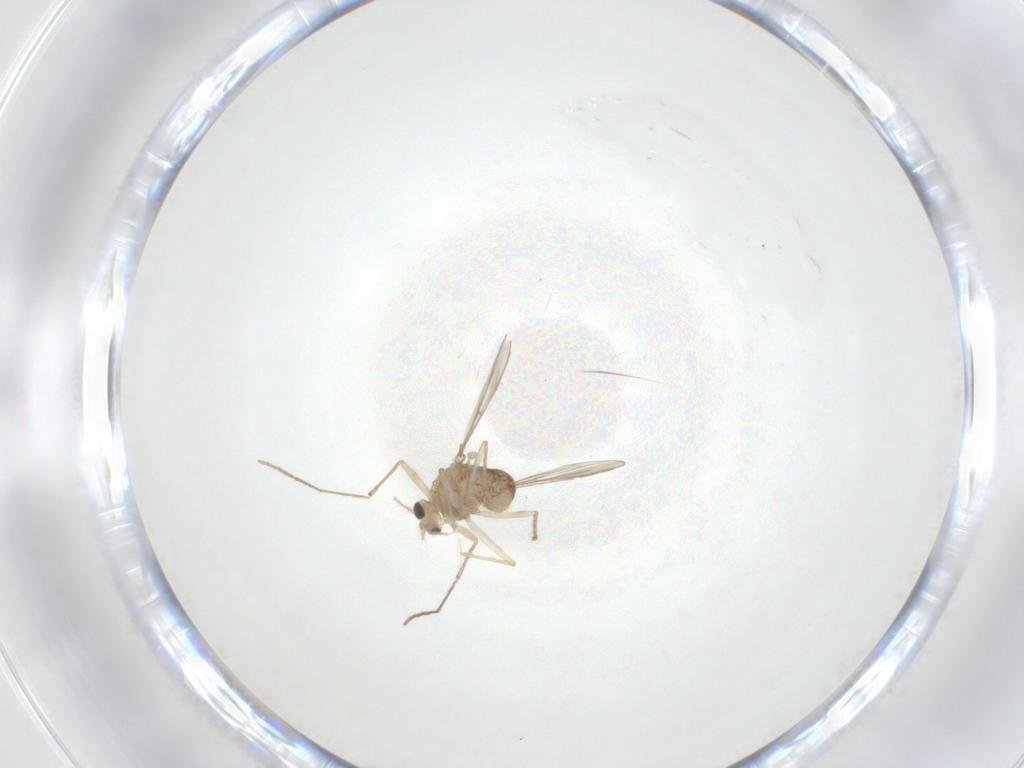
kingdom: Animalia
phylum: Arthropoda
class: Insecta
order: Diptera
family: Chironomidae
